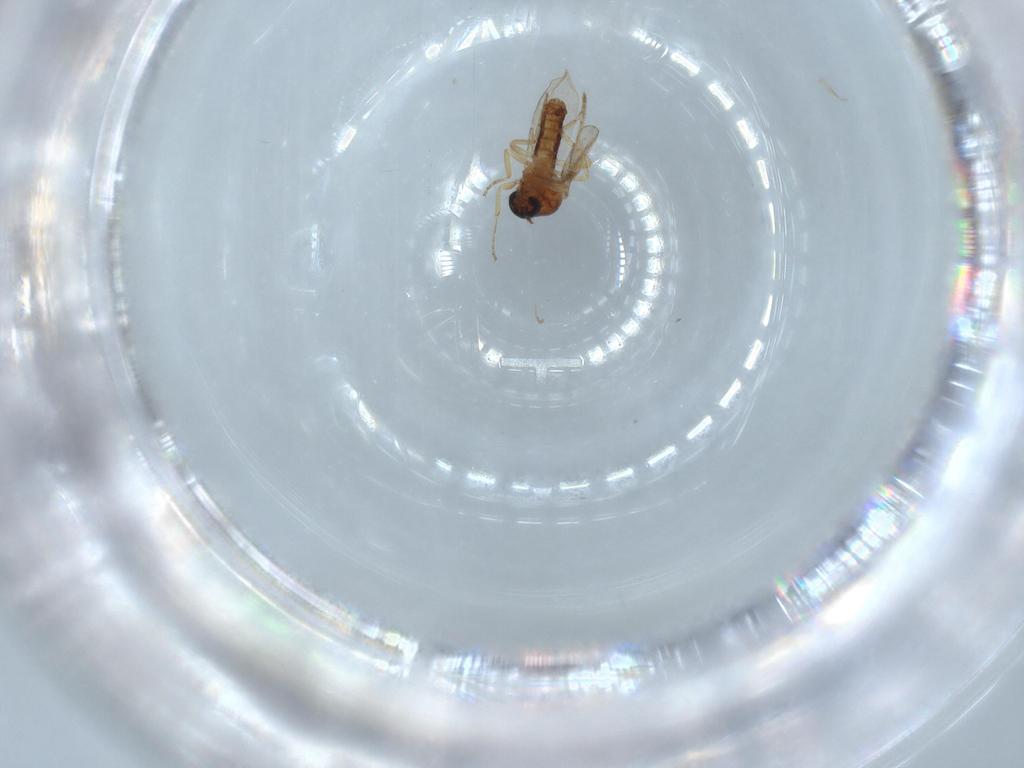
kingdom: Animalia
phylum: Arthropoda
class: Insecta
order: Diptera
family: Ceratopogonidae
